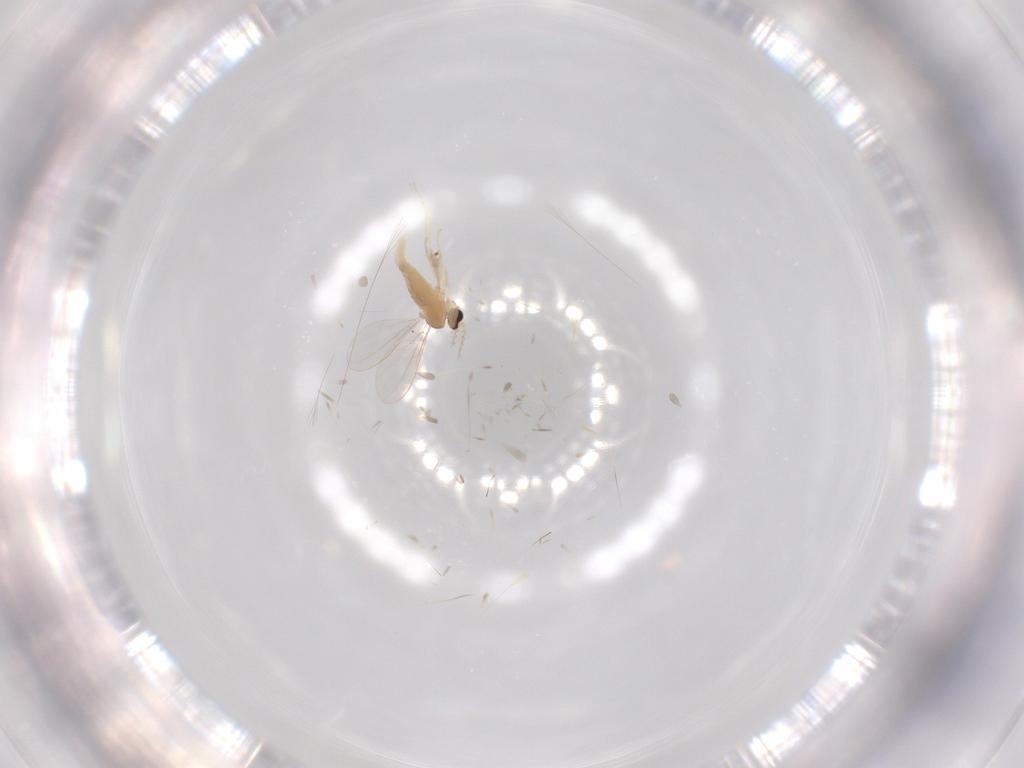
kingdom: Animalia
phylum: Arthropoda
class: Insecta
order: Diptera
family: Cecidomyiidae
